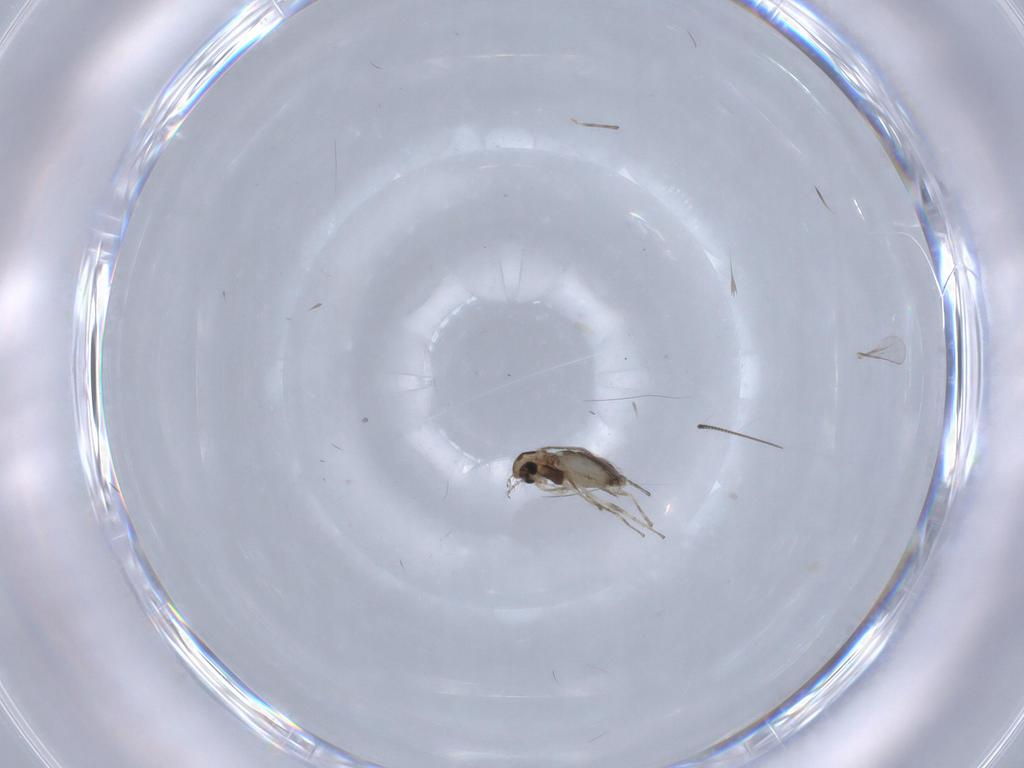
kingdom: Animalia
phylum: Arthropoda
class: Insecta
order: Diptera
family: Chironomidae
